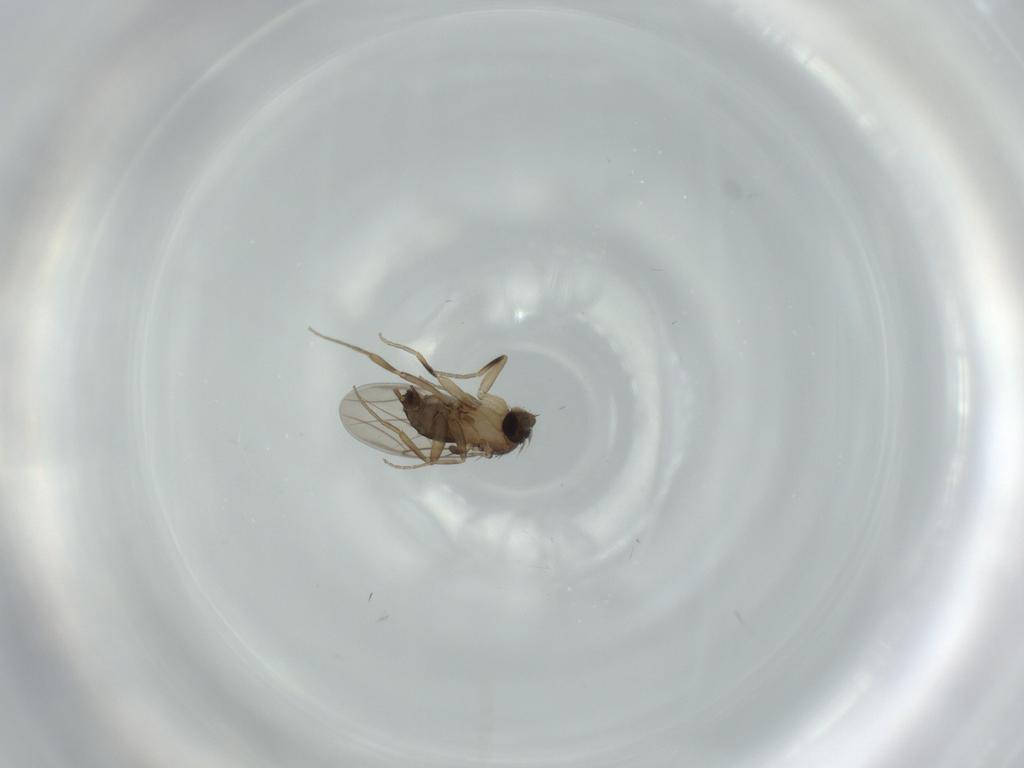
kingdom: Animalia
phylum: Arthropoda
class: Insecta
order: Diptera
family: Phoridae
